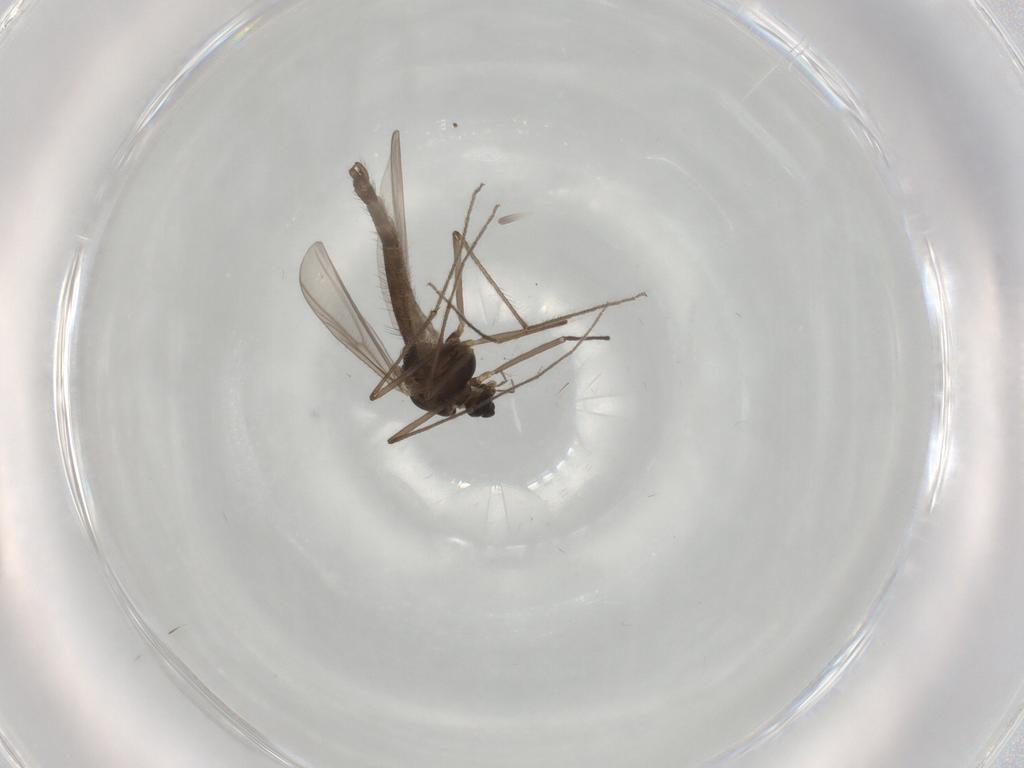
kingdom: Animalia
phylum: Arthropoda
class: Insecta
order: Diptera
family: Chironomidae
